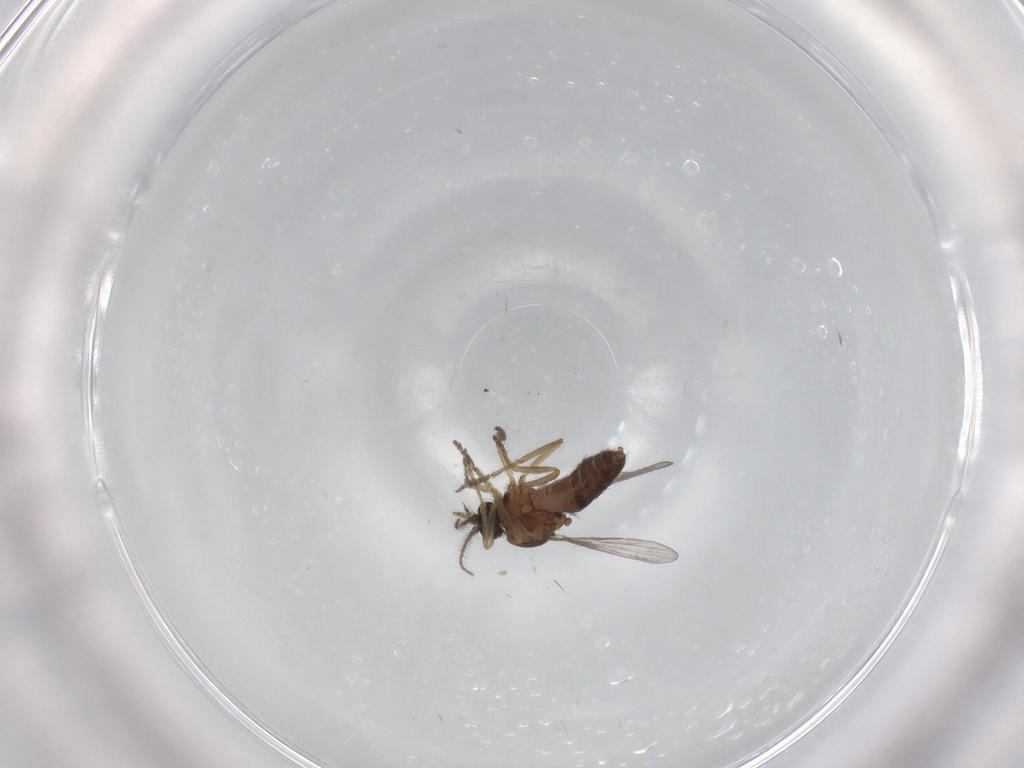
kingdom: Animalia
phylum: Arthropoda
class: Insecta
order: Diptera
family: Ceratopogonidae
